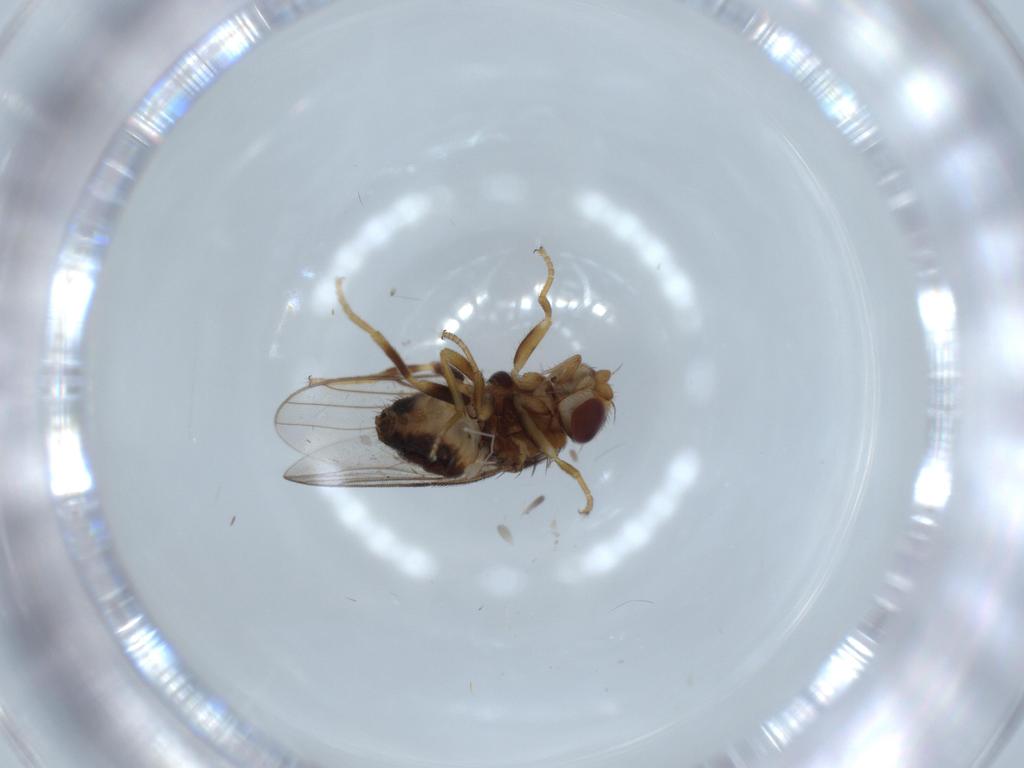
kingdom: Animalia
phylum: Arthropoda
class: Insecta
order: Diptera
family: Chloropidae
